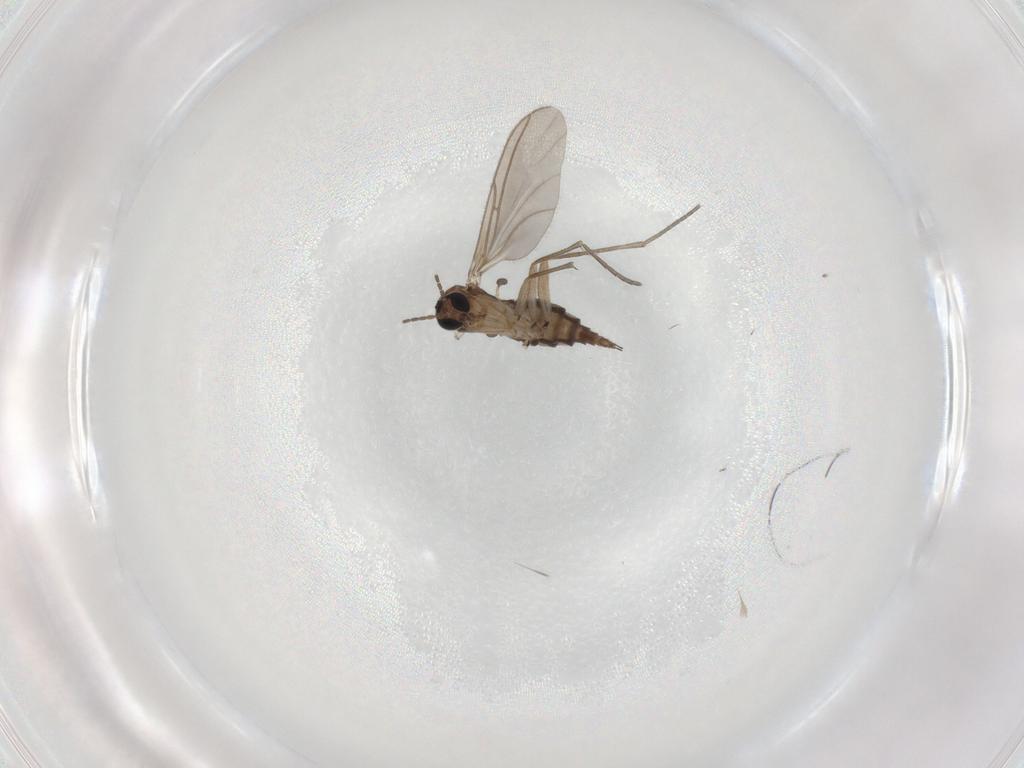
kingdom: Animalia
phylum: Arthropoda
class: Insecta
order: Diptera
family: Sciaridae
